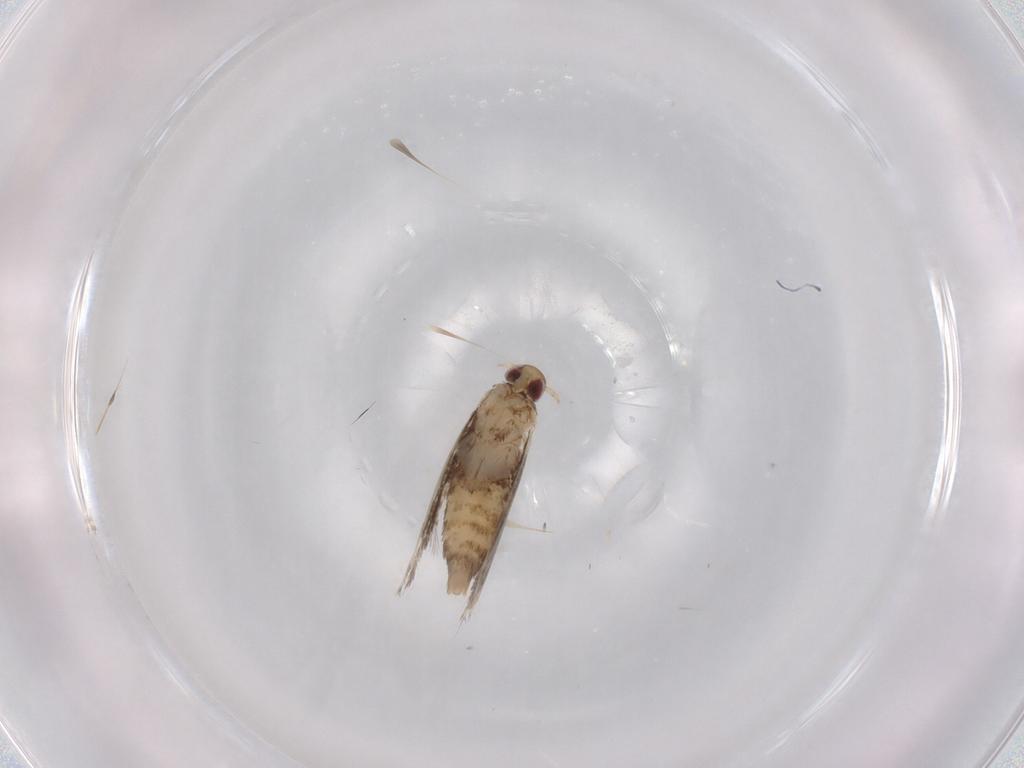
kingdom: Animalia
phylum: Arthropoda
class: Insecta
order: Lepidoptera
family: Gracillariidae
